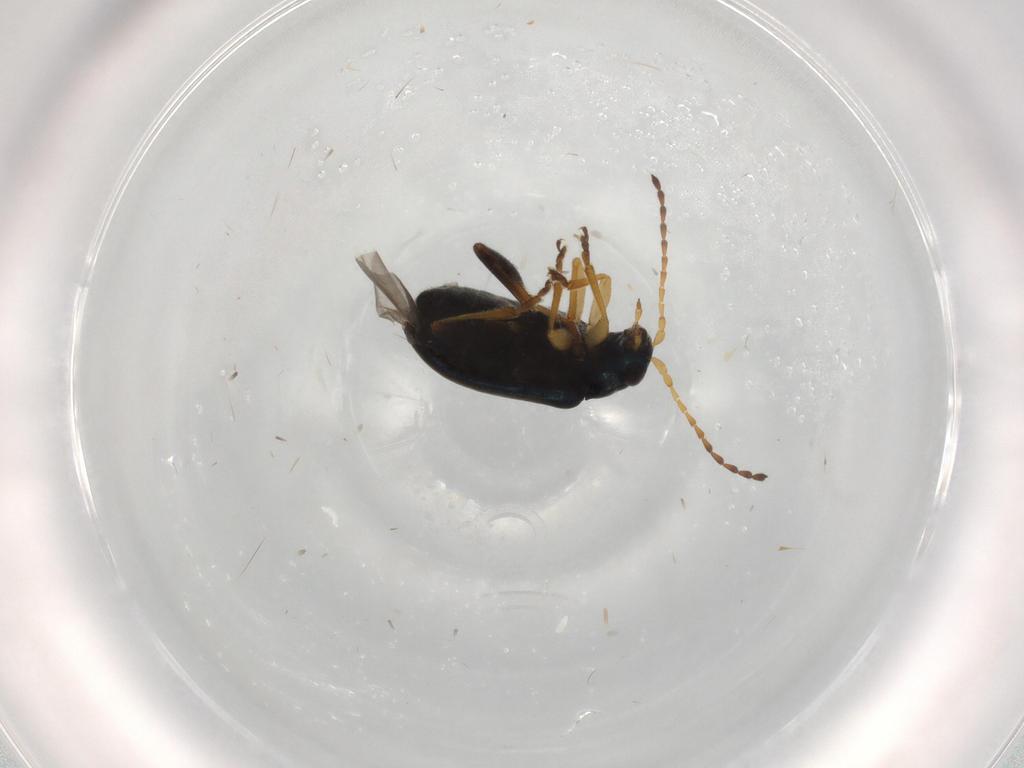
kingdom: Animalia
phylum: Arthropoda
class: Insecta
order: Coleoptera
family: Chrysomelidae
